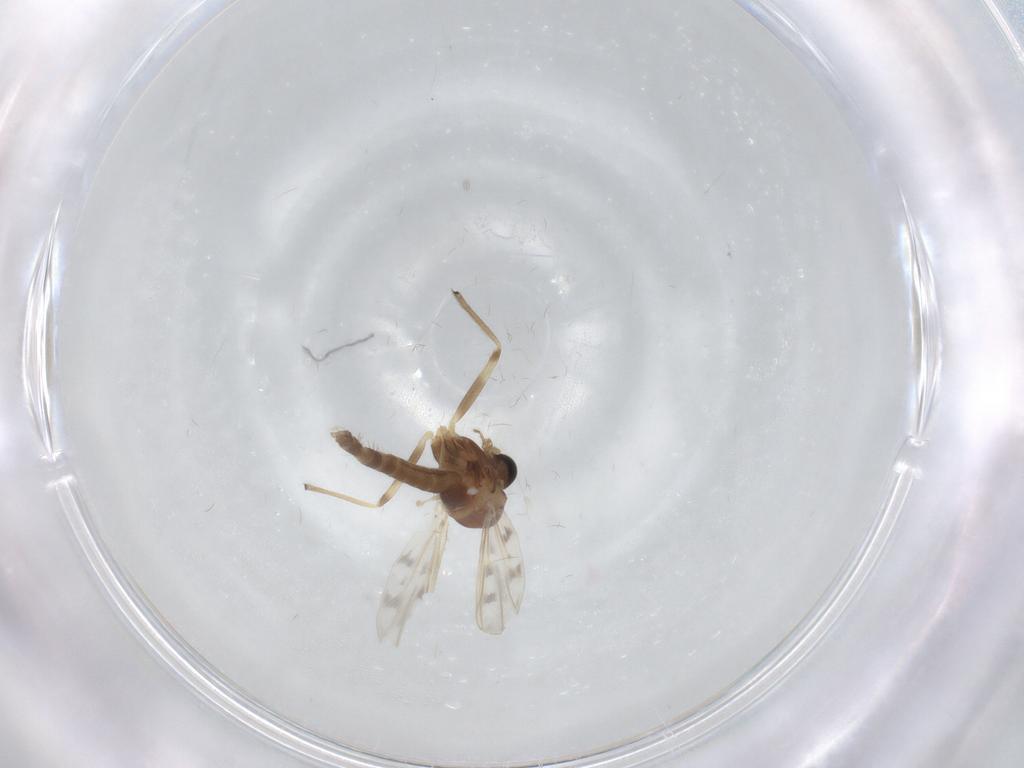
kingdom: Animalia
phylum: Arthropoda
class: Insecta
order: Diptera
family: Chironomidae
